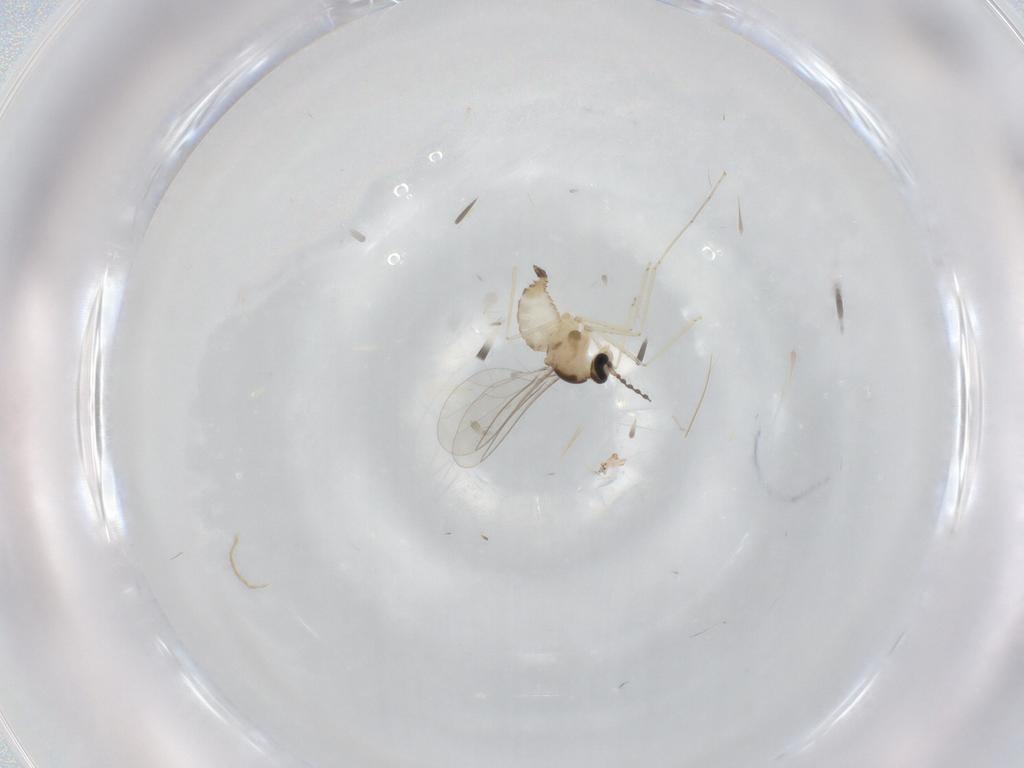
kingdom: Animalia
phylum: Arthropoda
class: Insecta
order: Diptera
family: Cecidomyiidae
